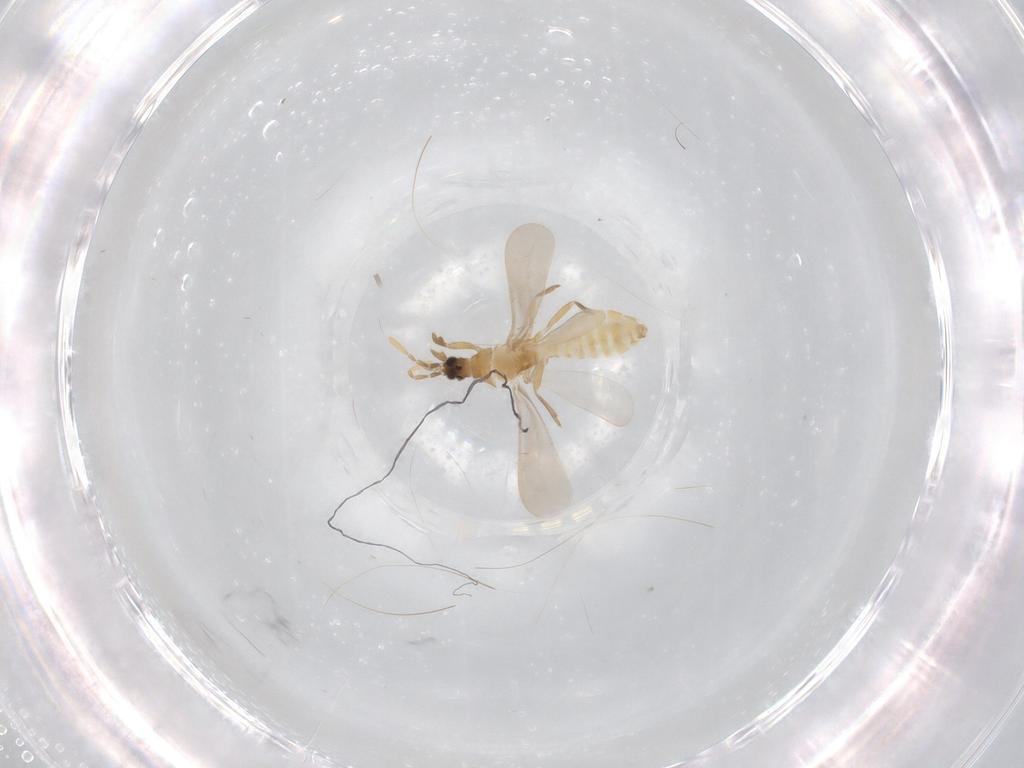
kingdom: Animalia
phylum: Arthropoda
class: Insecta
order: Hemiptera
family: Enicocephalidae
